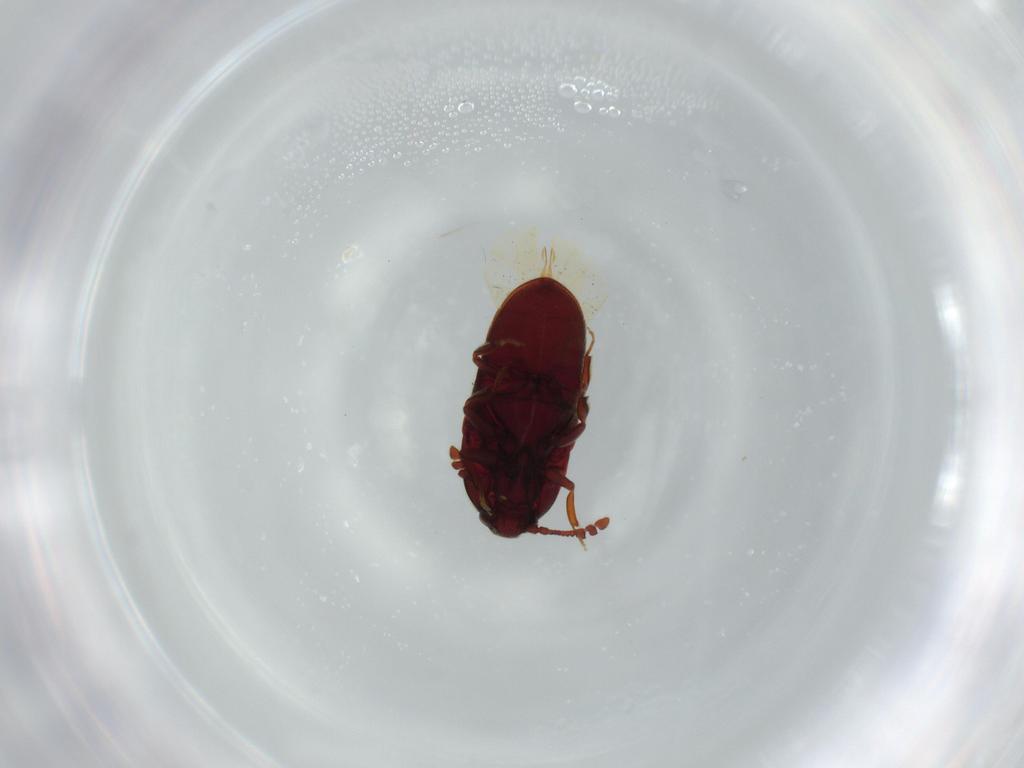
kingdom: Animalia
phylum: Arthropoda
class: Insecta
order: Coleoptera
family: Throscidae
